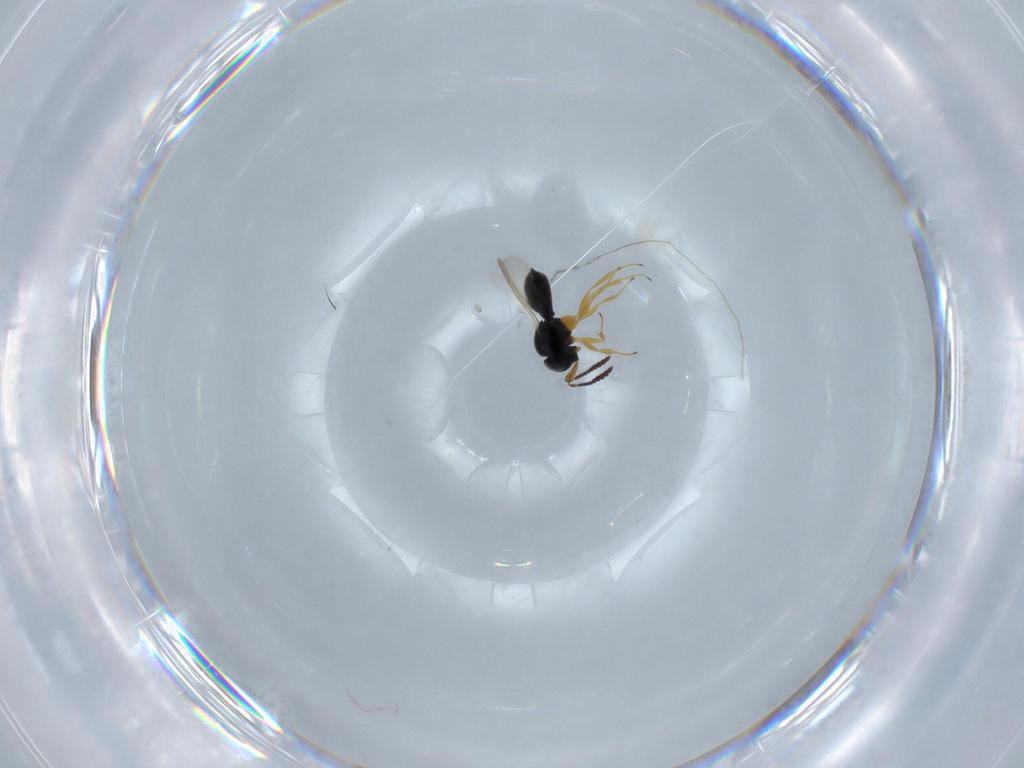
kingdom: Animalia
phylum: Arthropoda
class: Insecta
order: Hymenoptera
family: Scelionidae
